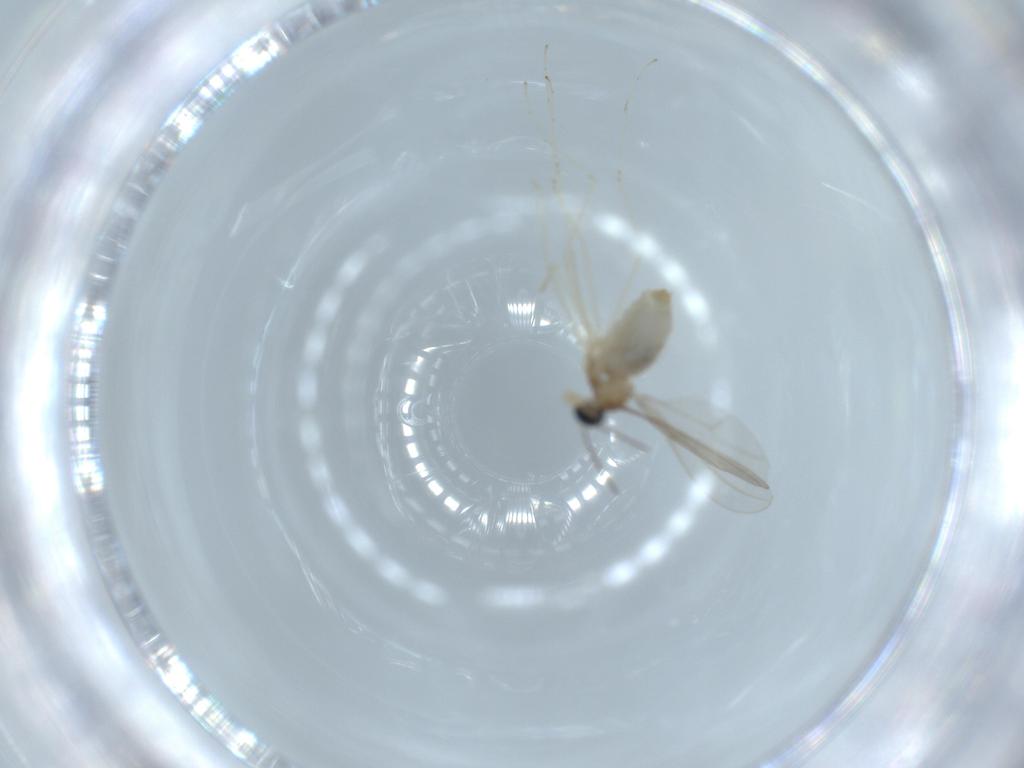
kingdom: Animalia
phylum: Arthropoda
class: Insecta
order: Diptera
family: Cecidomyiidae
